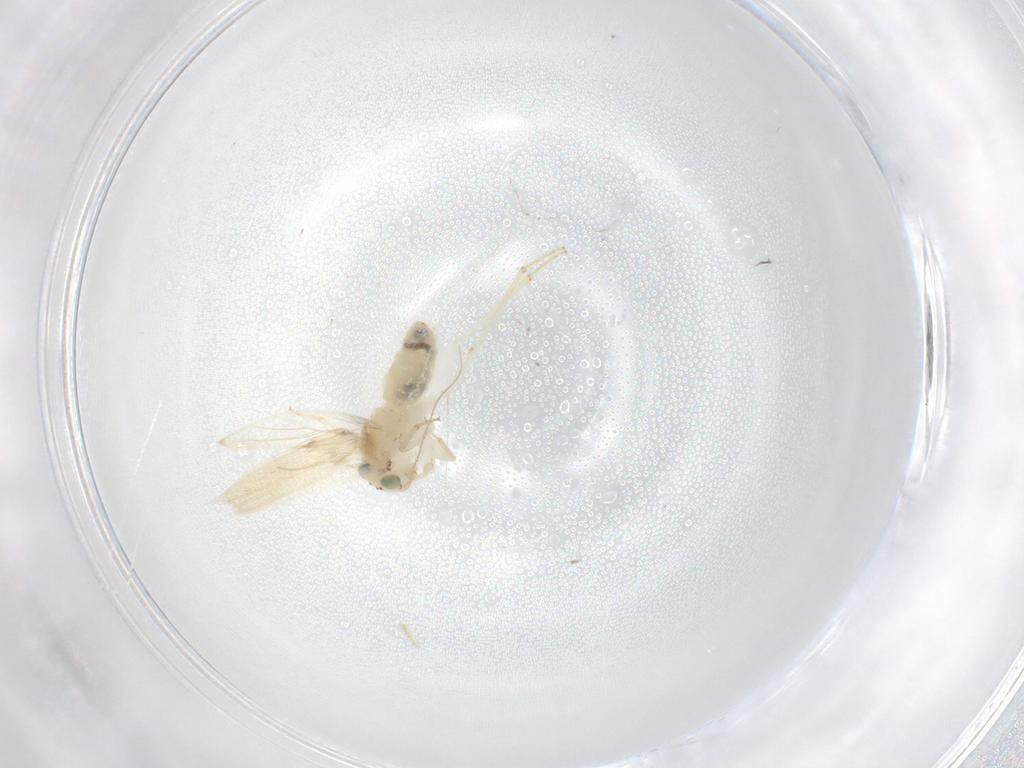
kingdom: Animalia
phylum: Arthropoda
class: Insecta
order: Psocodea
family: Lepidopsocidae
